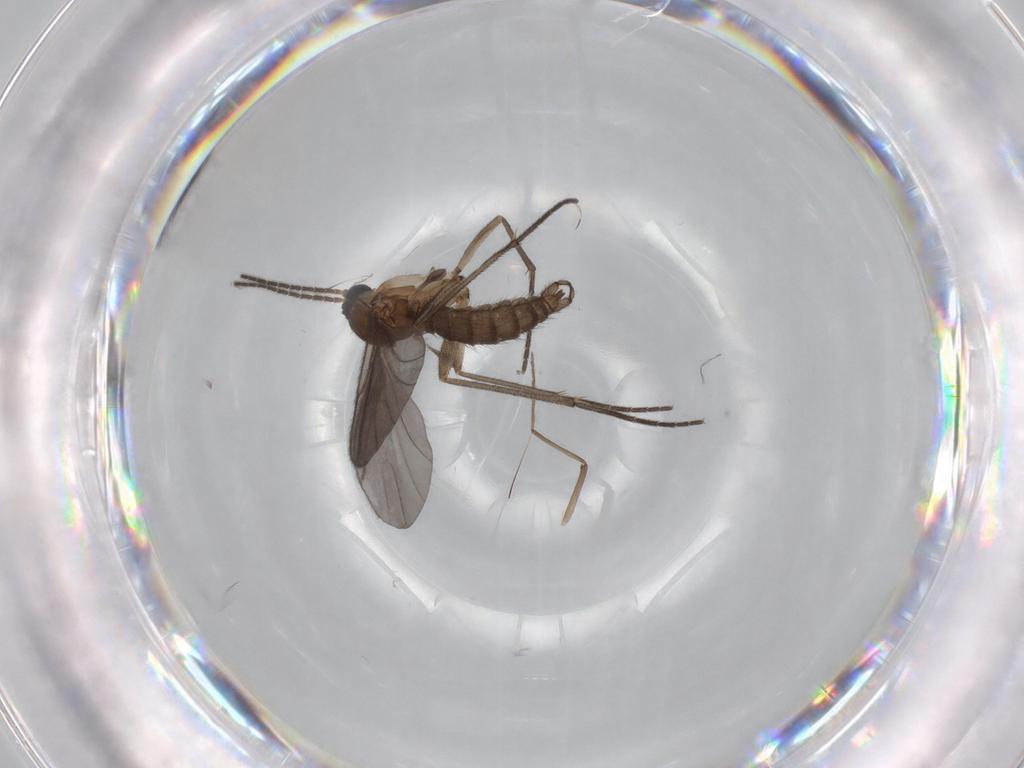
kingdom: Animalia
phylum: Arthropoda
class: Insecta
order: Diptera
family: Chironomidae
